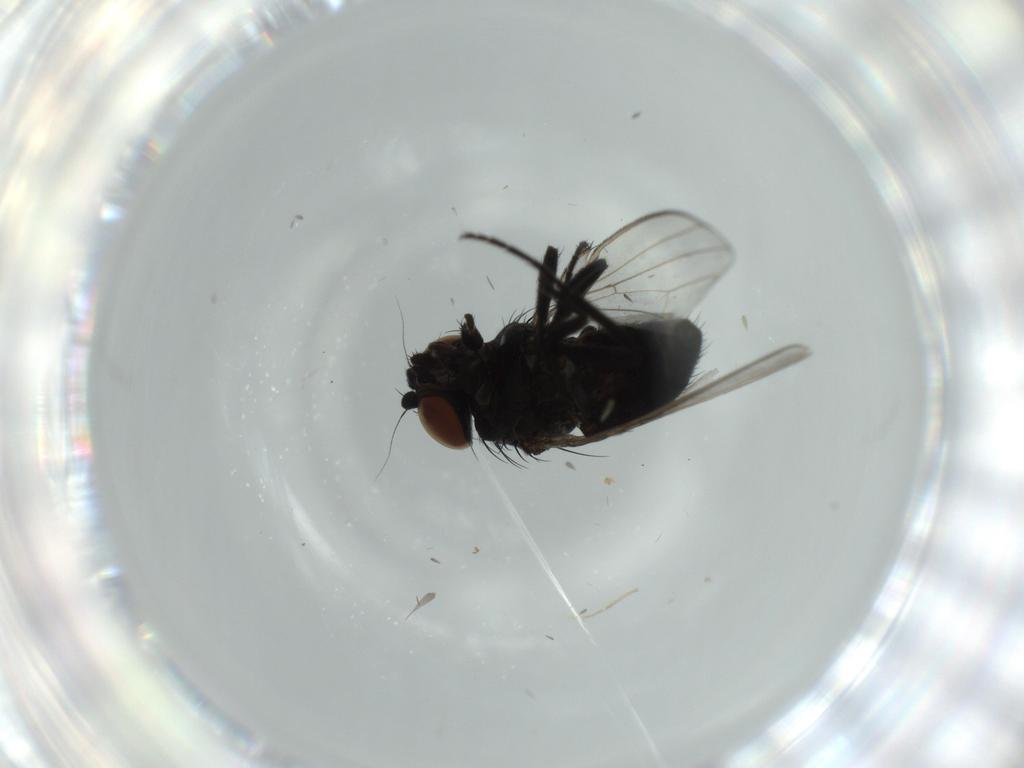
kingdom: Animalia
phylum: Arthropoda
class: Insecta
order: Diptera
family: Milichiidae
